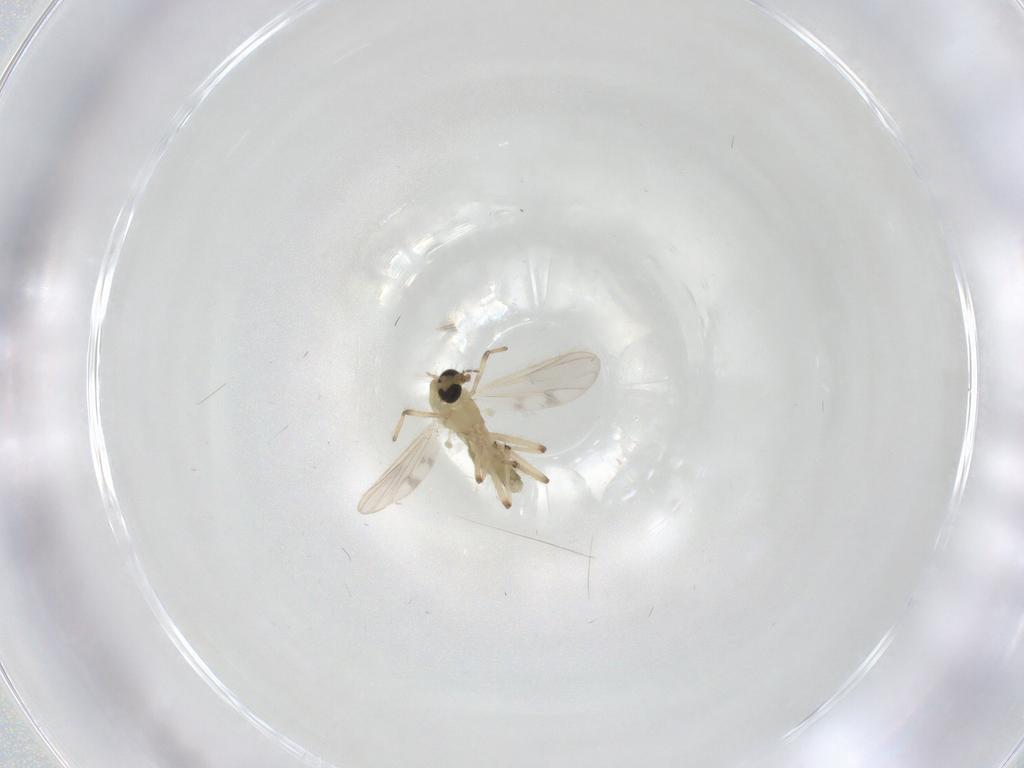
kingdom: Animalia
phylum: Arthropoda
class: Insecta
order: Diptera
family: Chironomidae
